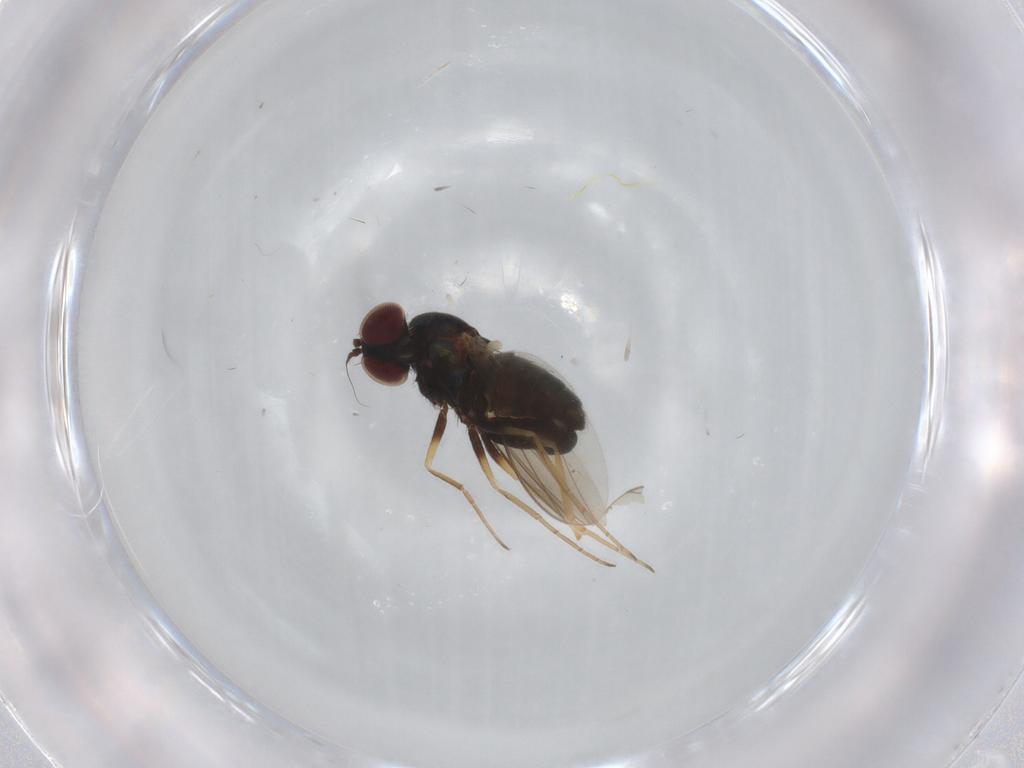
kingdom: Animalia
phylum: Arthropoda
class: Insecta
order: Diptera
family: Dolichopodidae
